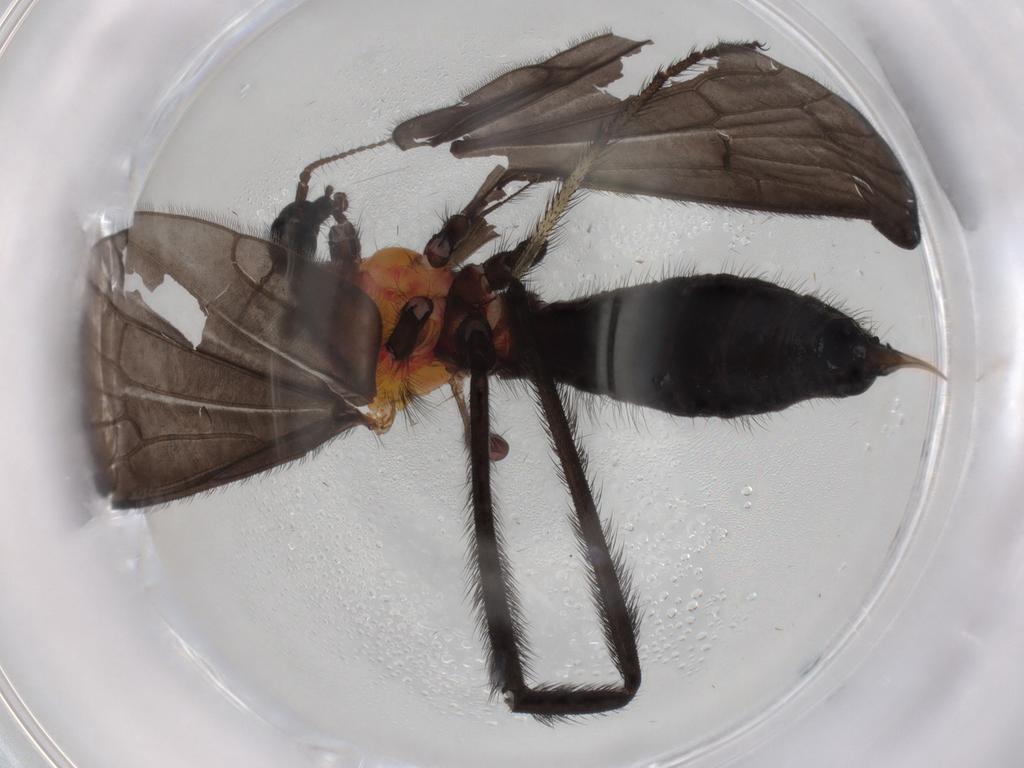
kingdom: Animalia
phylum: Arthropoda
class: Insecta
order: Diptera
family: Limoniidae
